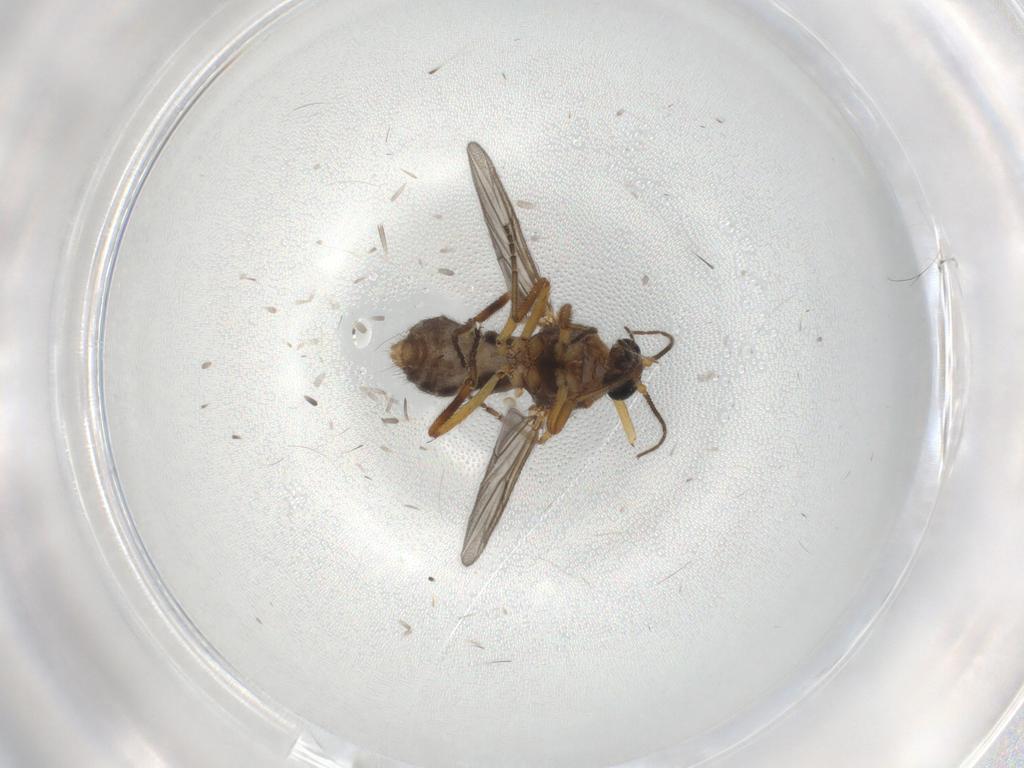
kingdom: Animalia
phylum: Arthropoda
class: Insecta
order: Diptera
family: Ceratopogonidae
